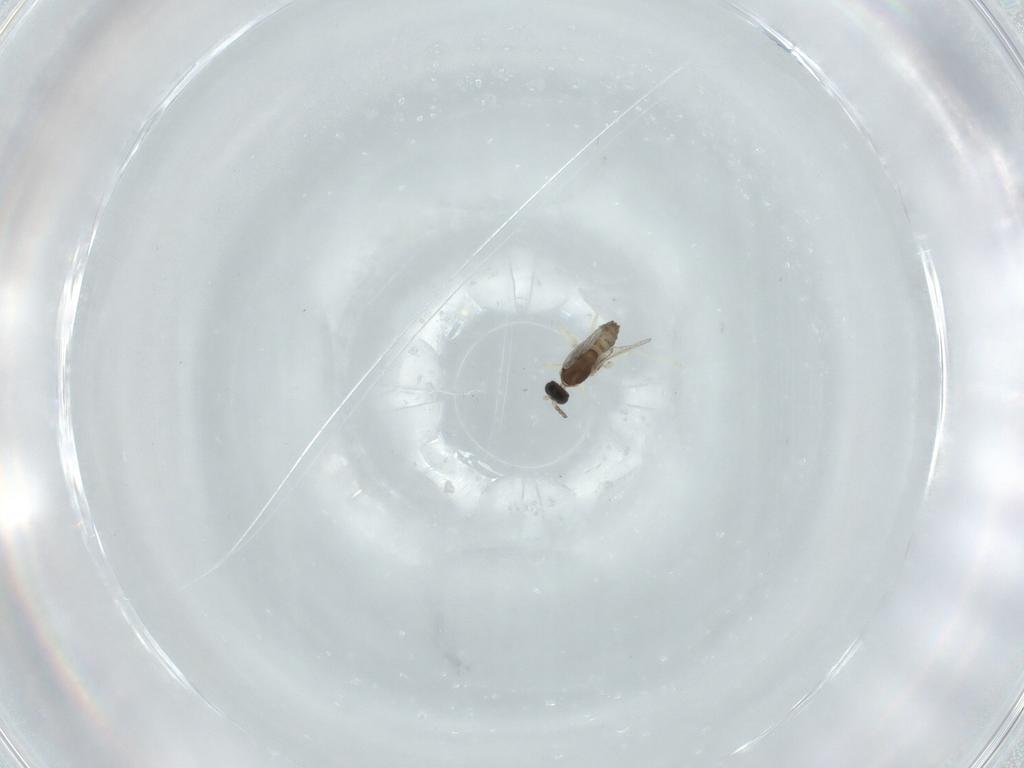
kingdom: Animalia
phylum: Arthropoda
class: Insecta
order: Diptera
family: Cecidomyiidae
